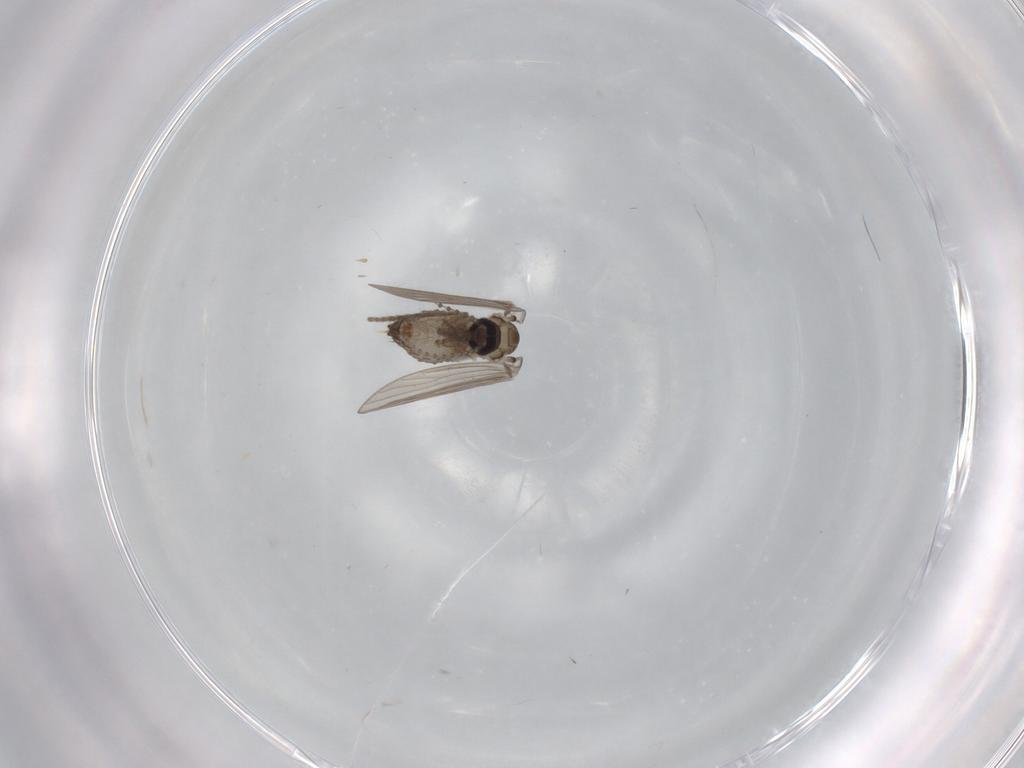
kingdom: Animalia
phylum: Arthropoda
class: Insecta
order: Diptera
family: Psychodidae
